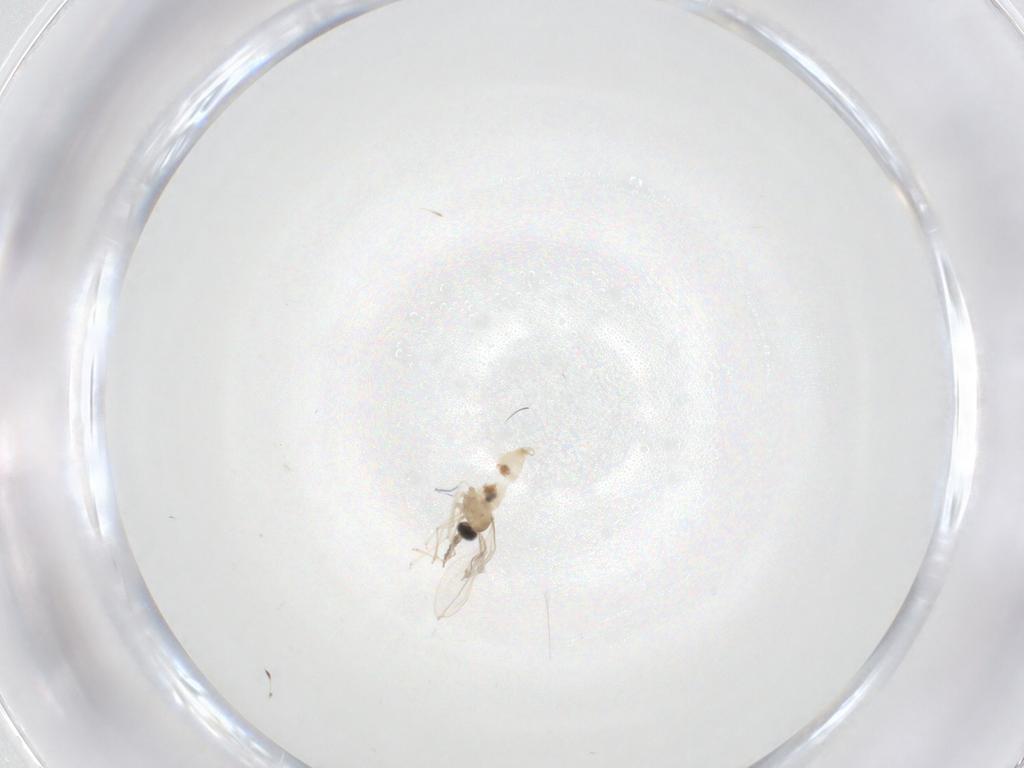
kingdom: Animalia
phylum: Arthropoda
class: Insecta
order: Diptera
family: Cecidomyiidae
